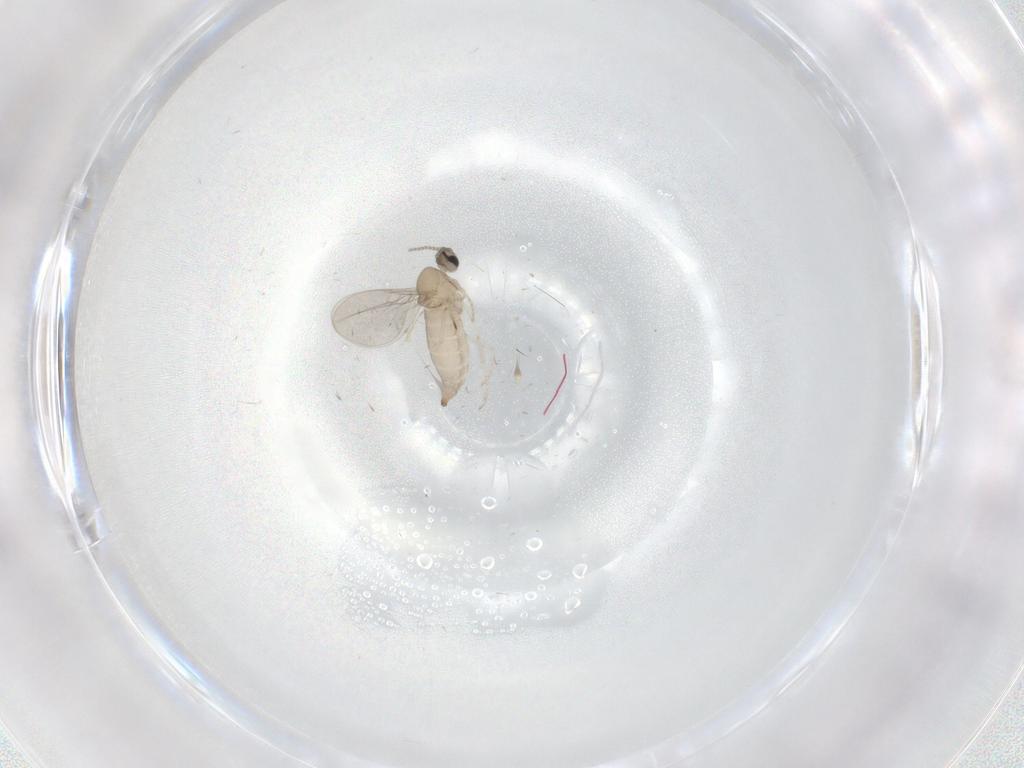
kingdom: Animalia
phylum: Arthropoda
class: Insecta
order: Diptera
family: Cecidomyiidae
